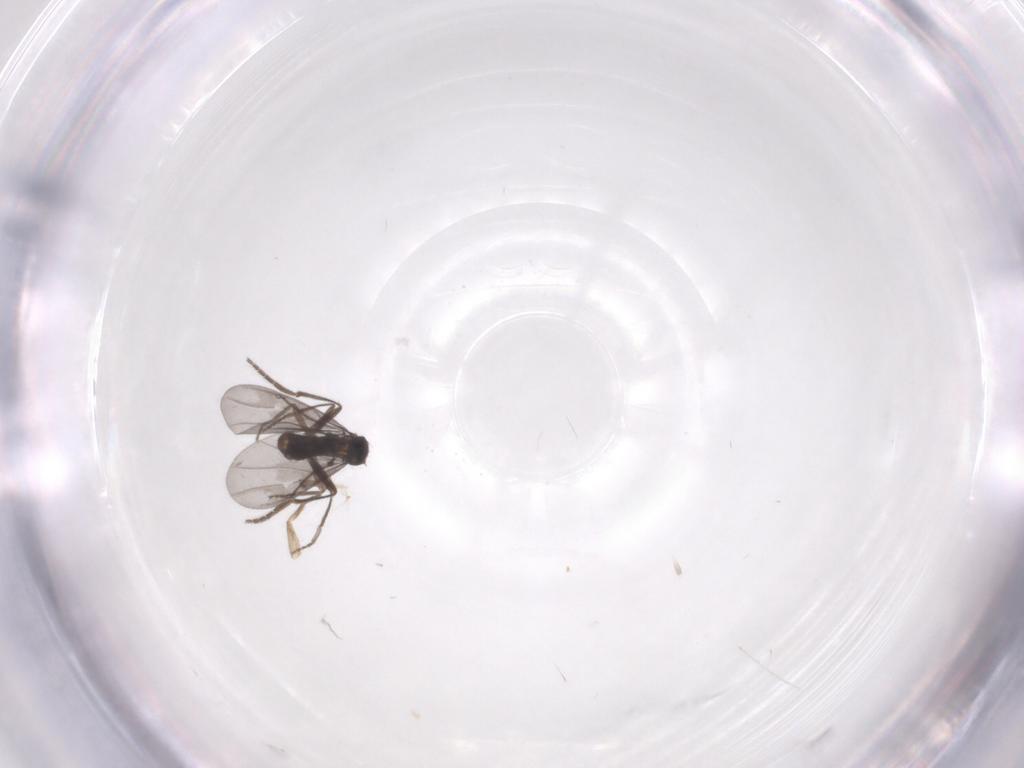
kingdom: Animalia
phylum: Arthropoda
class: Insecta
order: Diptera
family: Phoridae
